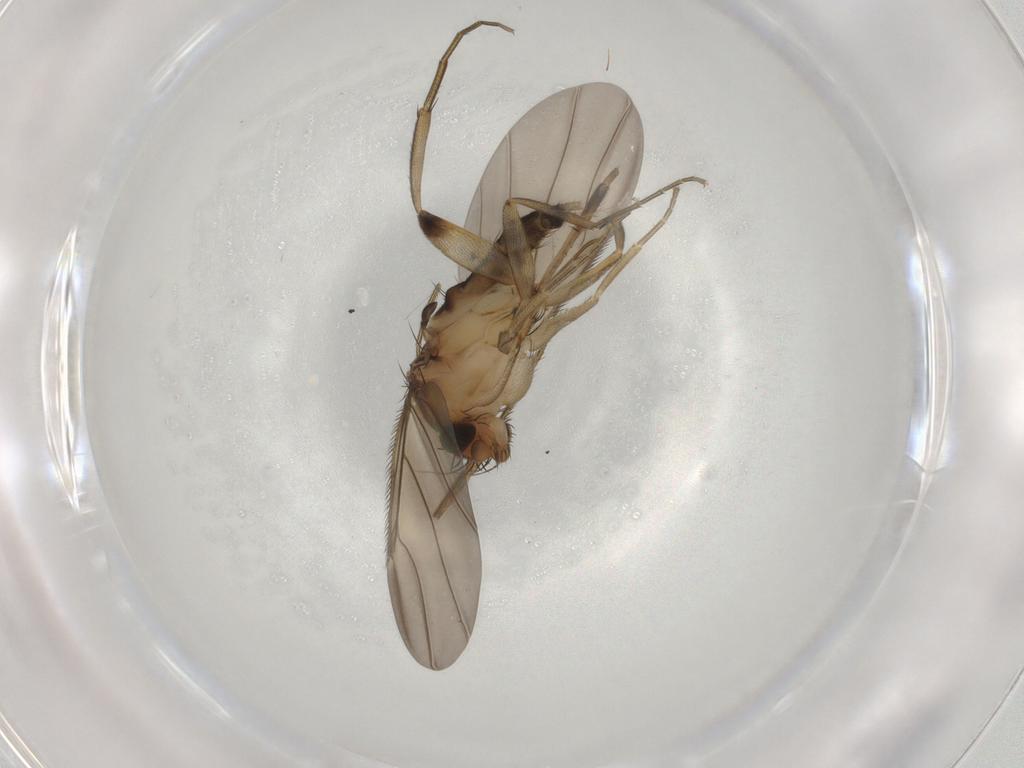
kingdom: Animalia
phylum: Arthropoda
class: Insecta
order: Diptera
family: Phoridae
